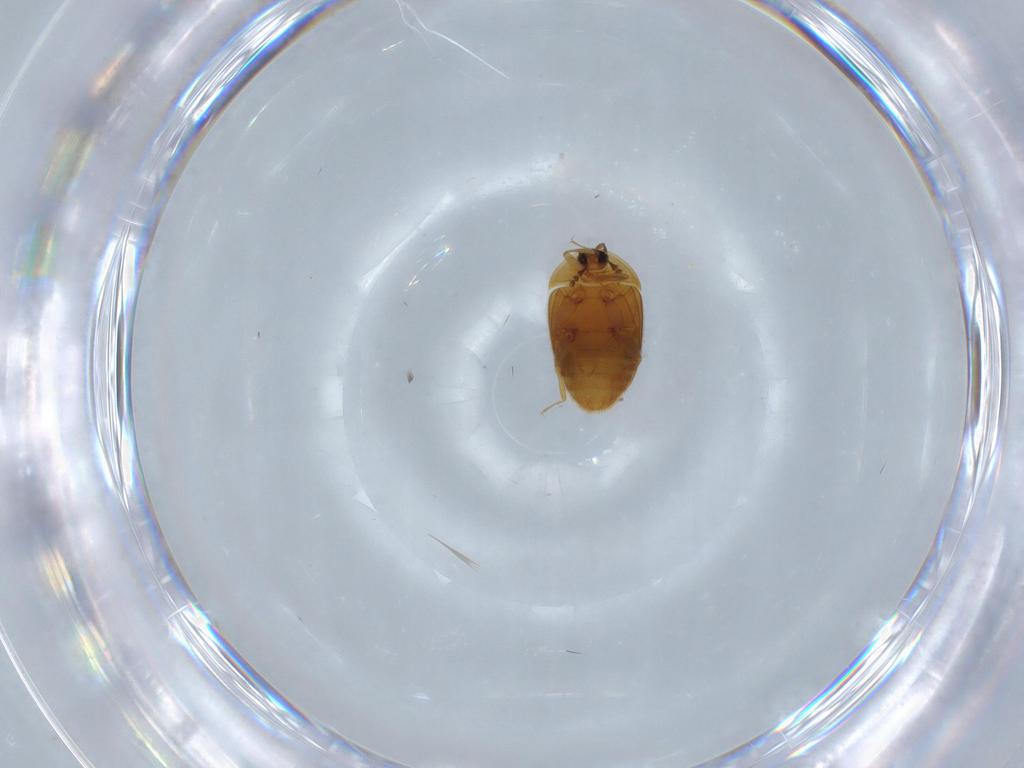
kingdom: Animalia
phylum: Arthropoda
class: Insecta
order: Coleoptera
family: Corylophidae
